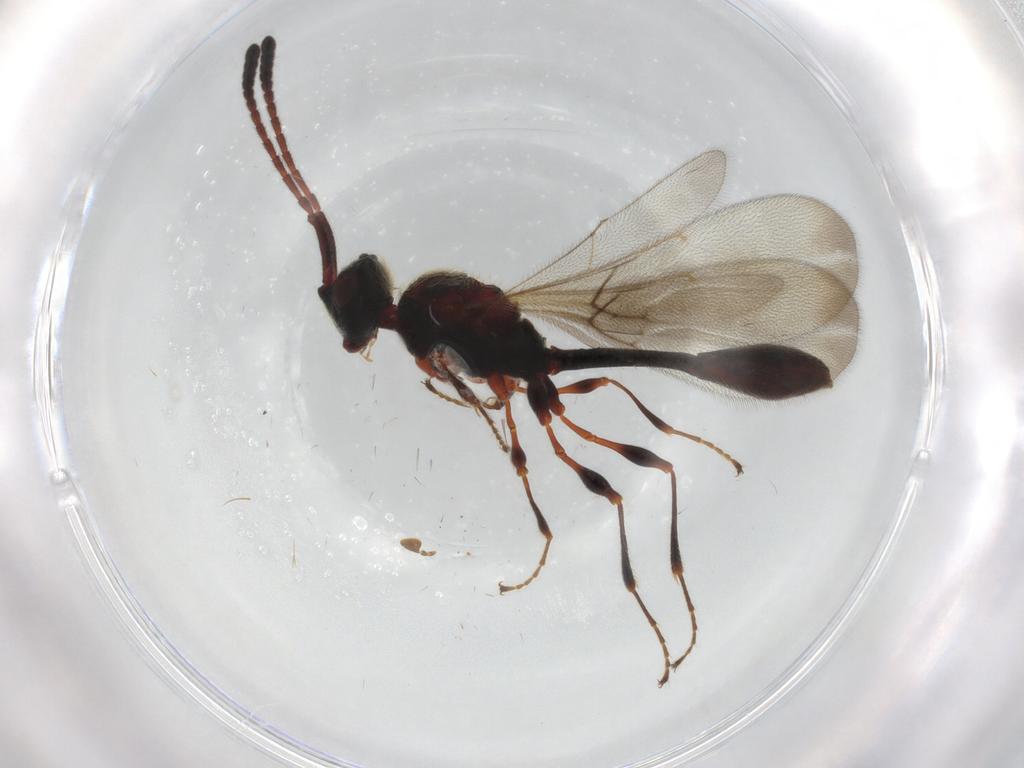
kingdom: Animalia
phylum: Arthropoda
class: Insecta
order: Hymenoptera
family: Diapriidae
